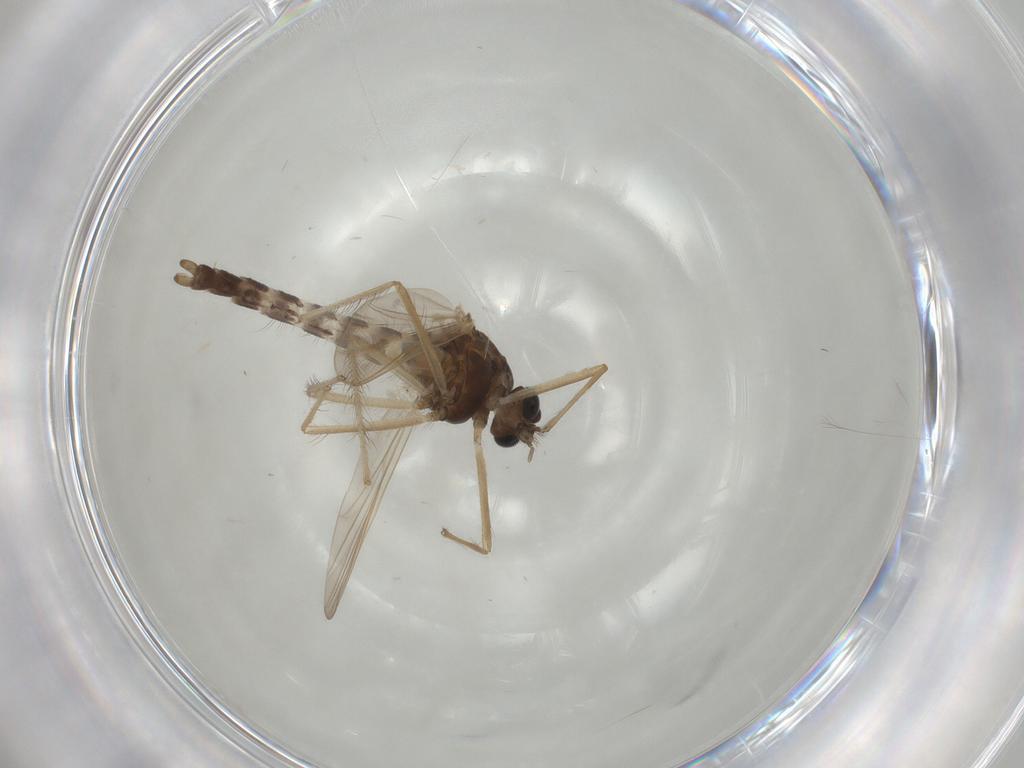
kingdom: Animalia
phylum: Arthropoda
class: Insecta
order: Diptera
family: Chironomidae
